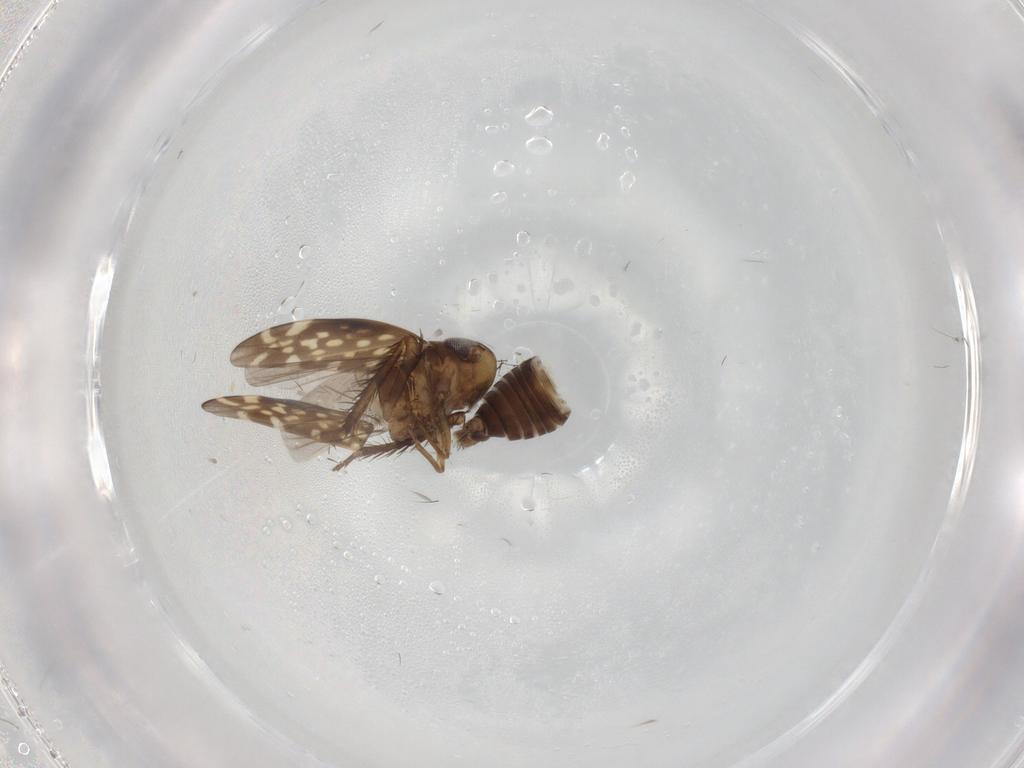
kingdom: Animalia
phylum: Arthropoda
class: Insecta
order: Hemiptera
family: Cicadellidae
